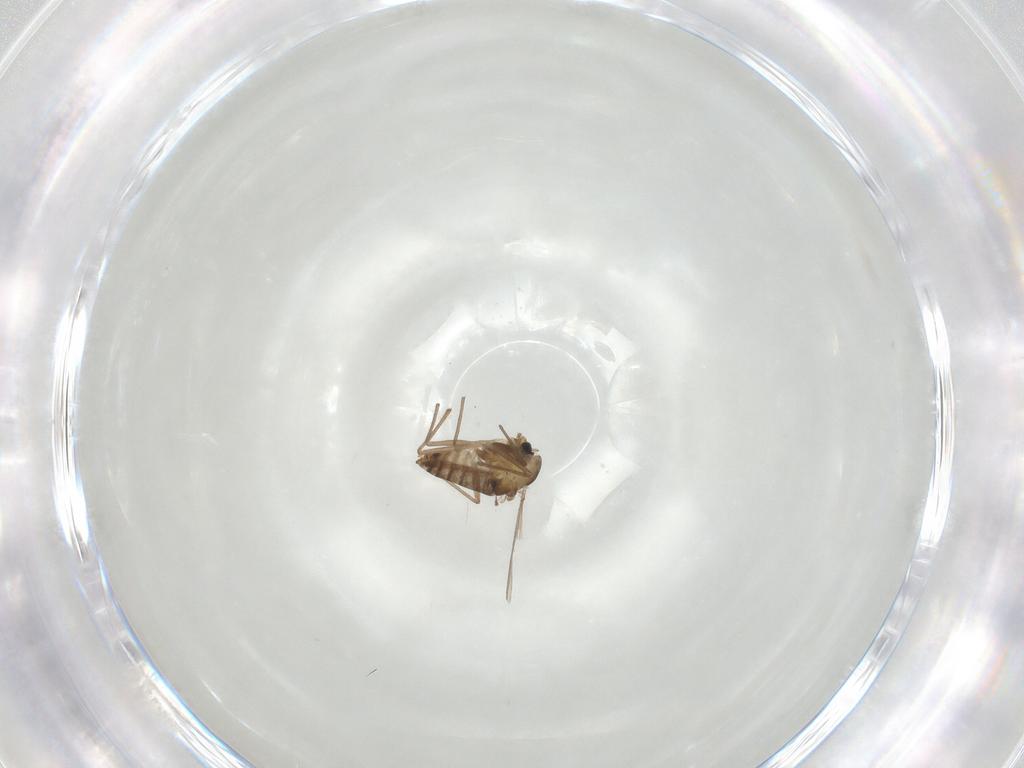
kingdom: Animalia
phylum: Arthropoda
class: Insecta
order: Diptera
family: Chironomidae
